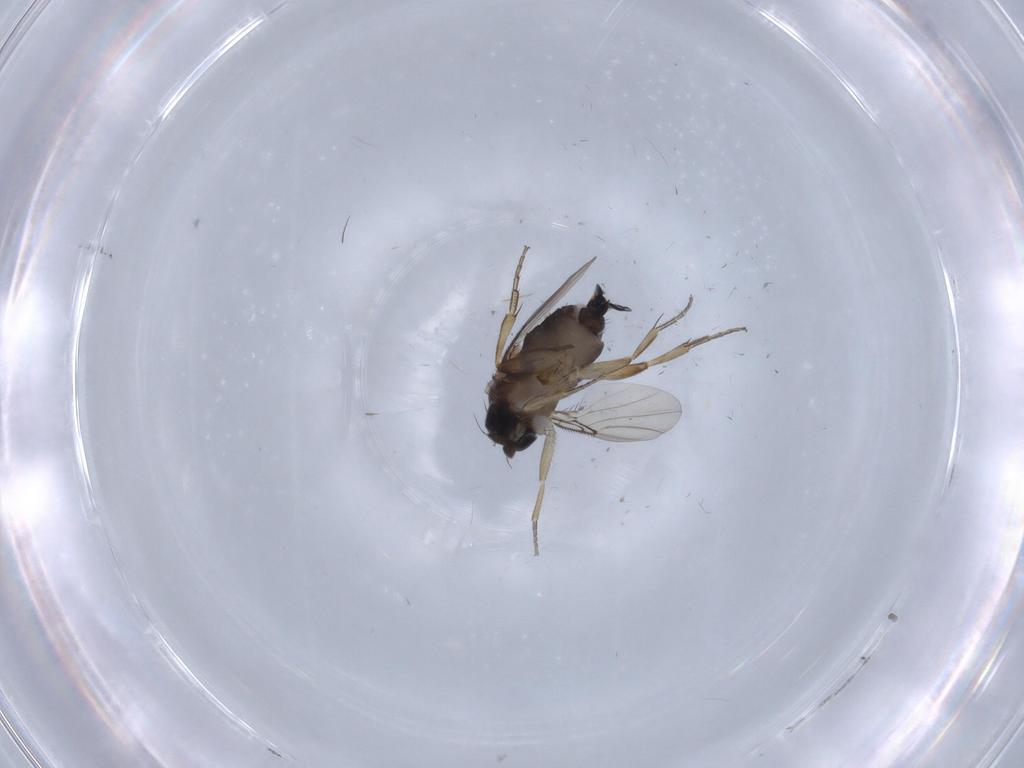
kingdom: Animalia
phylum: Arthropoda
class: Insecta
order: Diptera
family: Phoridae
